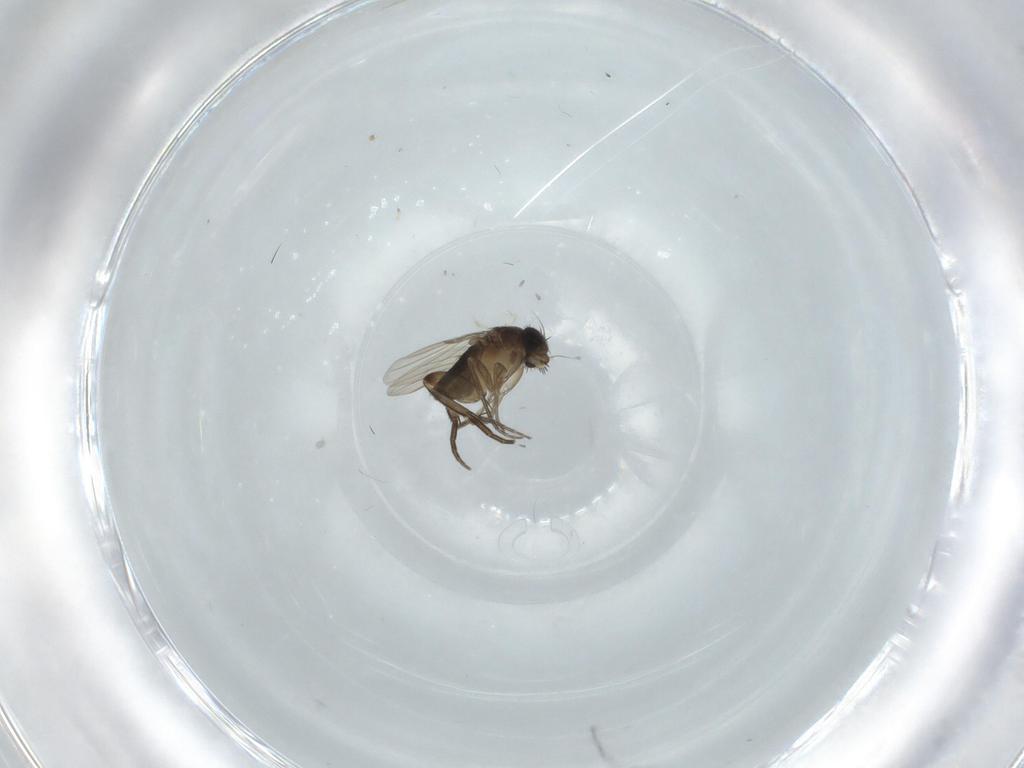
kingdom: Animalia
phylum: Arthropoda
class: Insecta
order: Diptera
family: Phoridae
